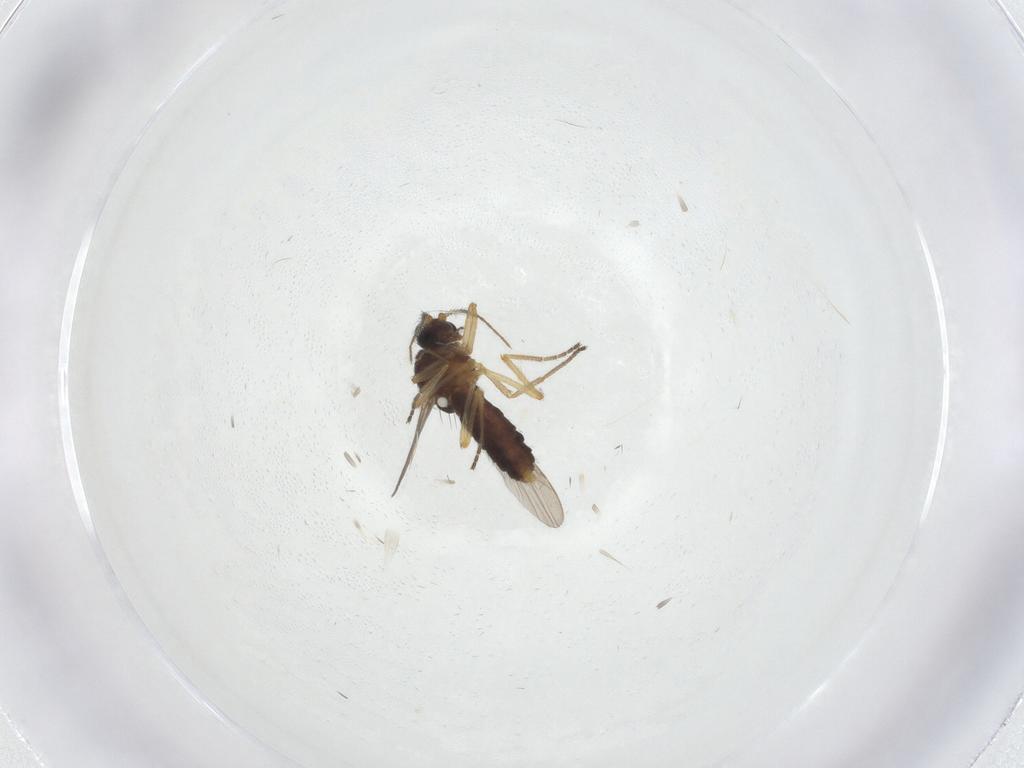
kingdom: Animalia
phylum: Arthropoda
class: Insecta
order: Diptera
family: Ceratopogonidae
